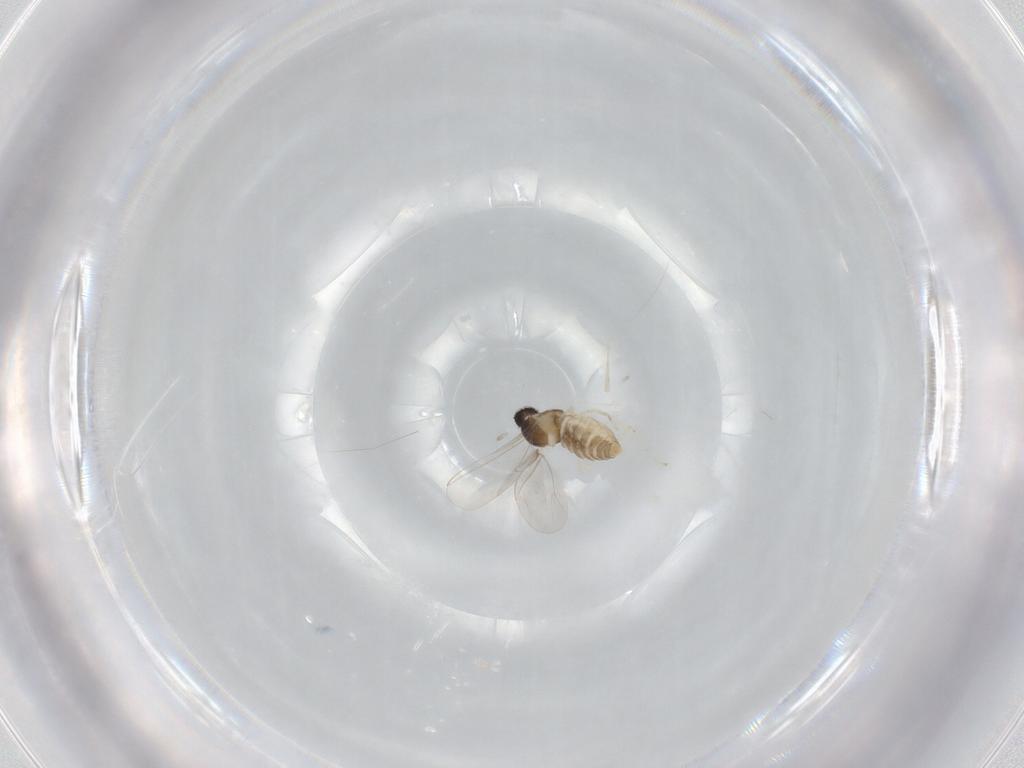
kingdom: Animalia
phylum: Arthropoda
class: Insecta
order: Diptera
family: Cecidomyiidae
